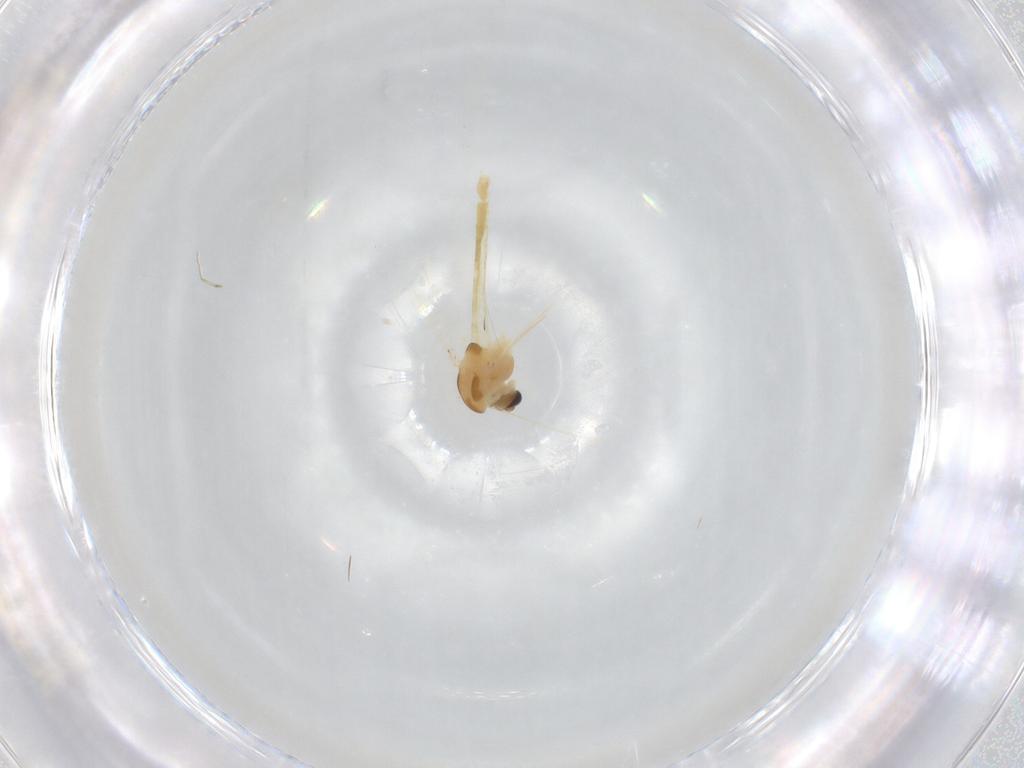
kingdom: Animalia
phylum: Arthropoda
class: Insecta
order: Diptera
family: Chironomidae
